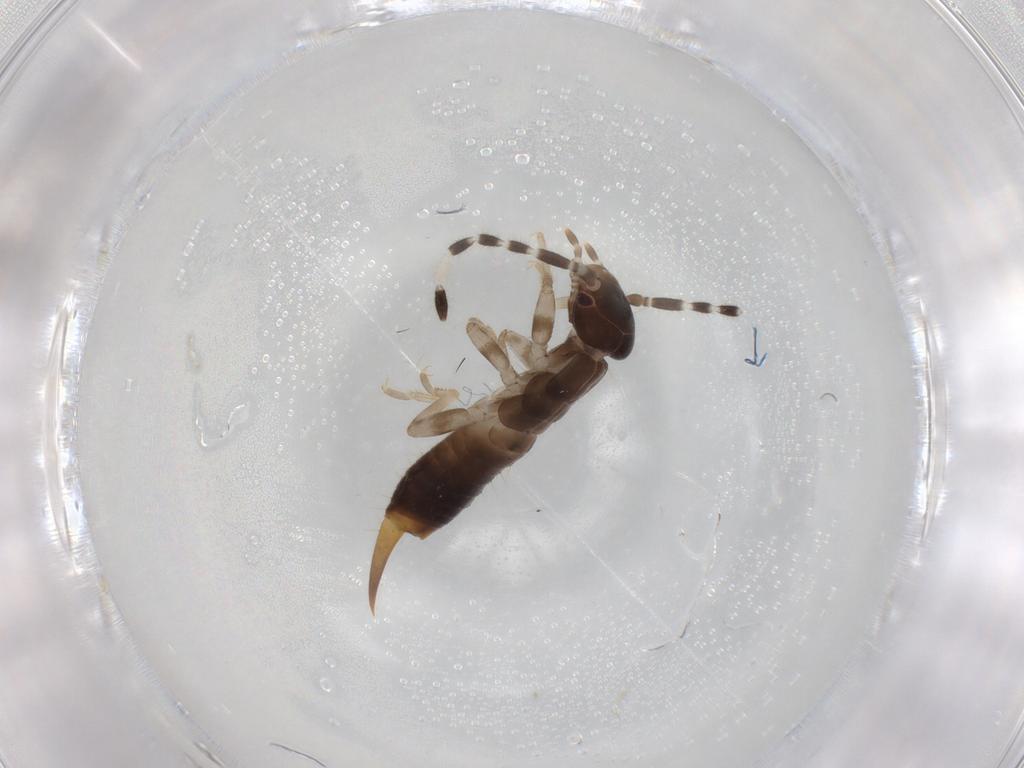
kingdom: Animalia
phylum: Arthropoda
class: Insecta
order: Dermaptera
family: Anisolabididae
